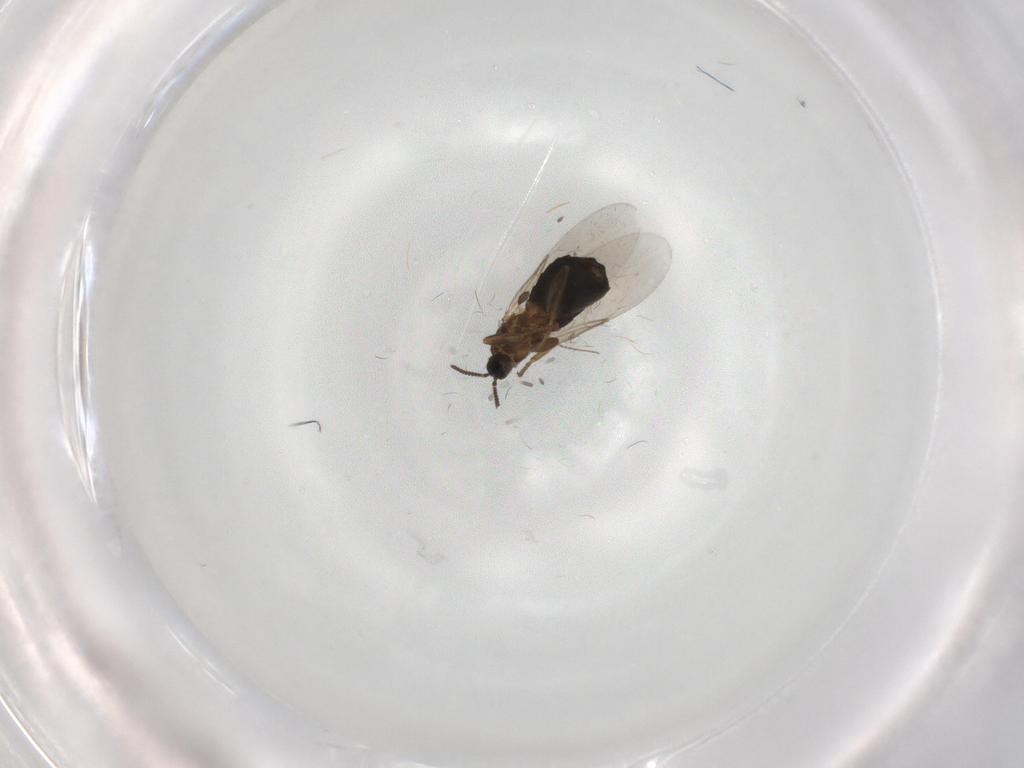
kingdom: Animalia
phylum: Arthropoda
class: Insecta
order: Diptera
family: Scatopsidae
